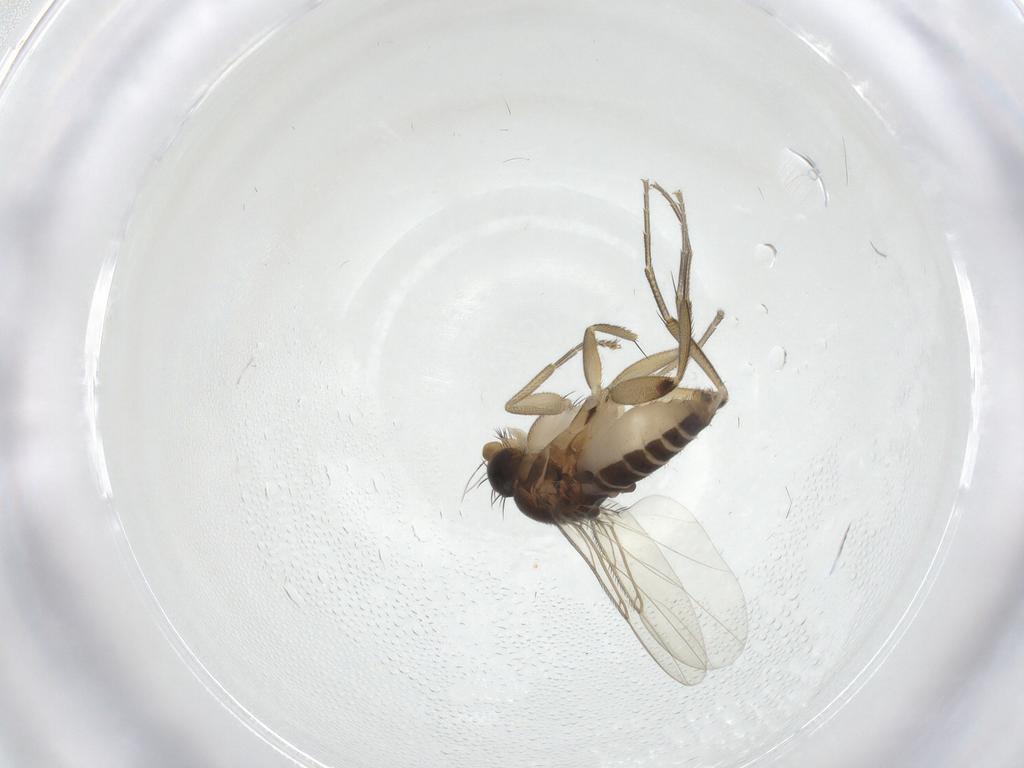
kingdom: Animalia
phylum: Arthropoda
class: Insecta
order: Diptera
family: Phoridae
